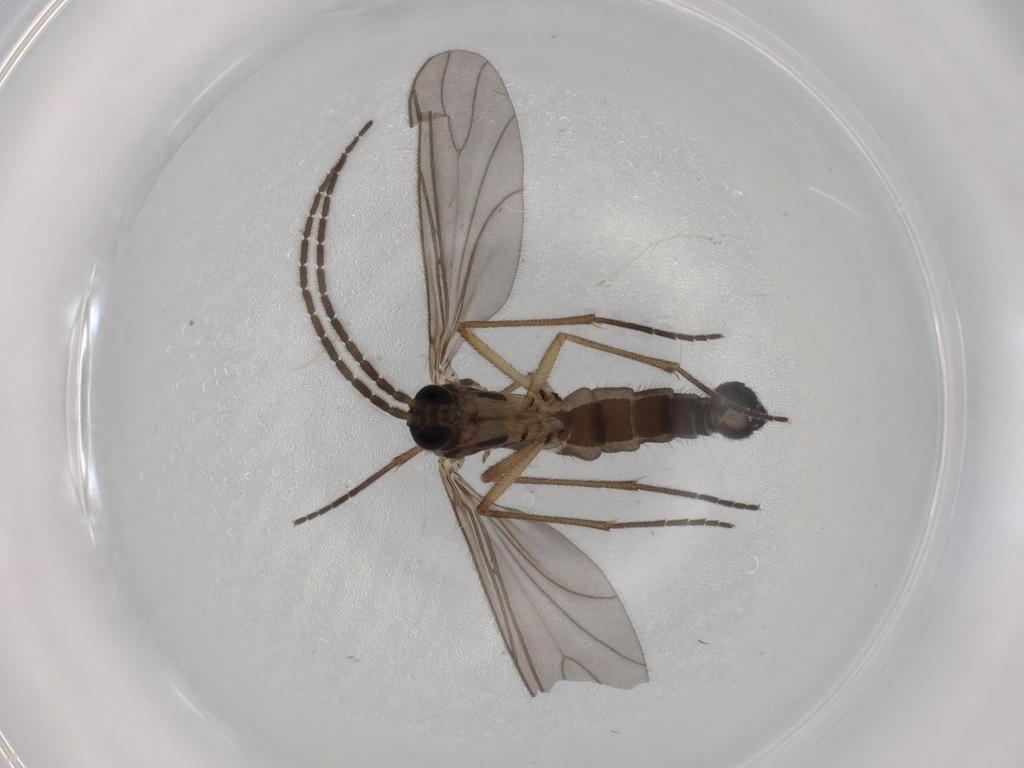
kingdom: Animalia
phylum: Arthropoda
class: Insecta
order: Diptera
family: Sciaridae
